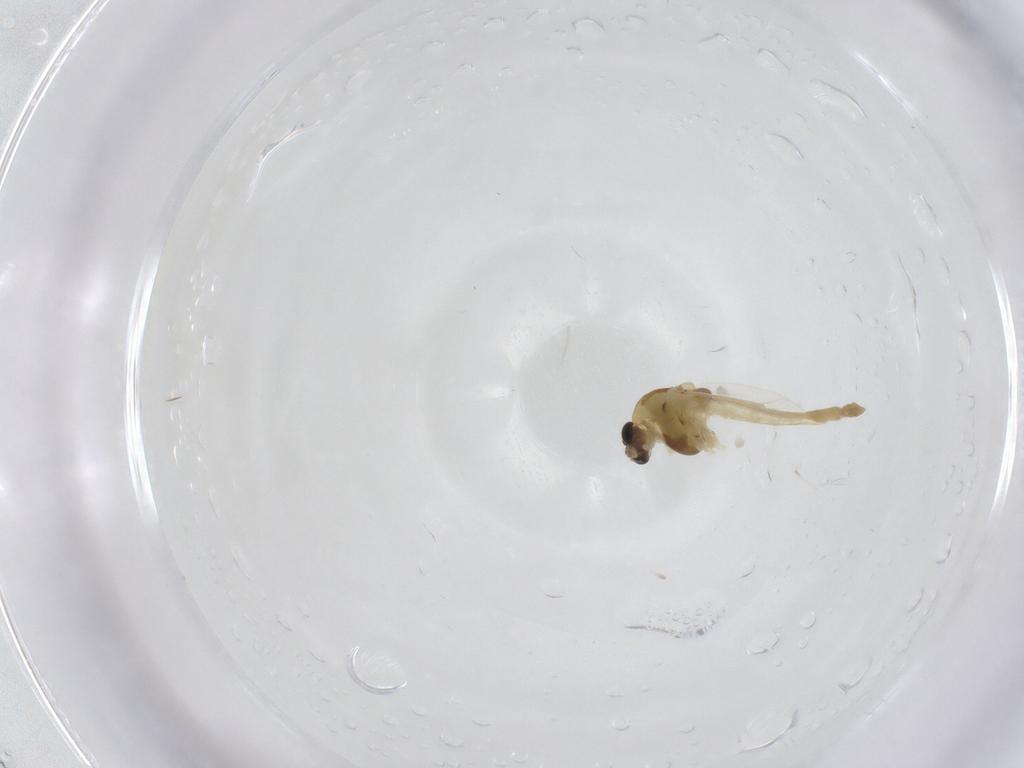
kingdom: Animalia
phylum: Arthropoda
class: Insecta
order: Diptera
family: Chironomidae
